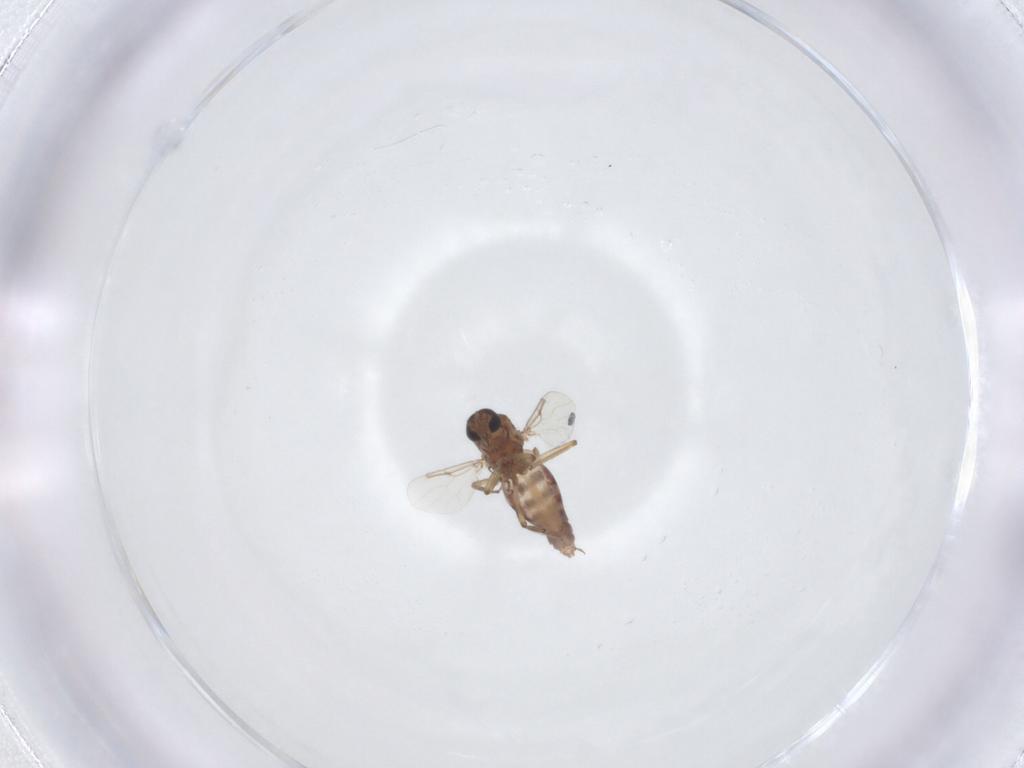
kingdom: Animalia
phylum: Arthropoda
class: Insecta
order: Diptera
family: Ceratopogonidae
